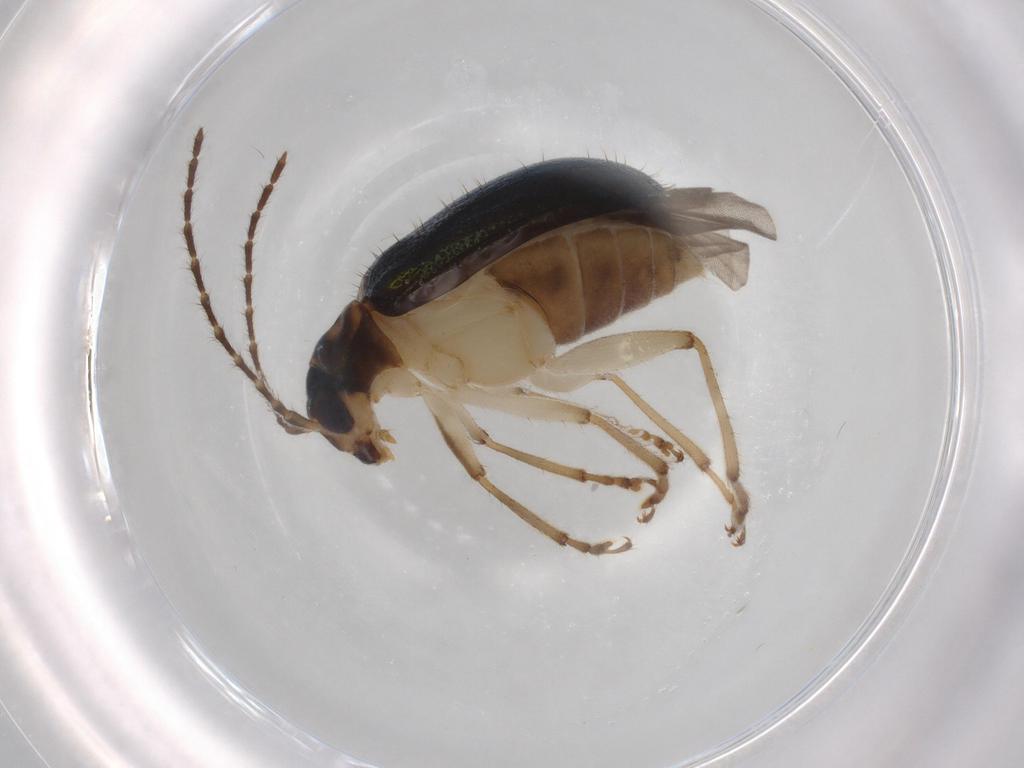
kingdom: Animalia
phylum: Arthropoda
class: Insecta
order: Coleoptera
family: Chrysomelidae
